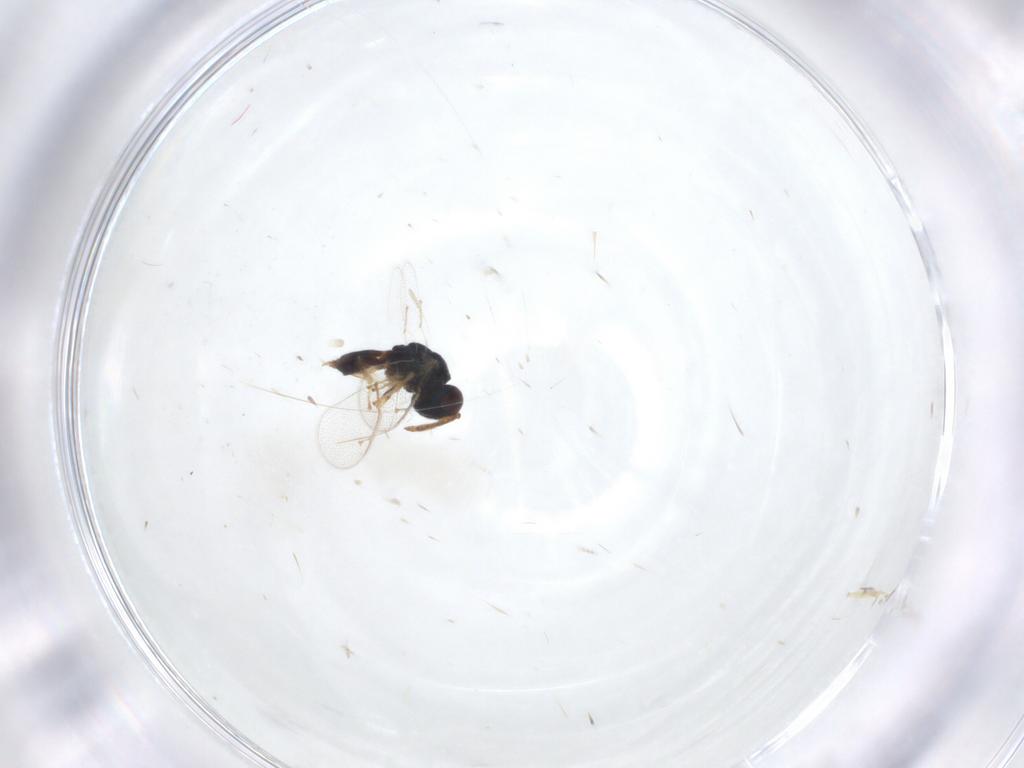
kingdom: Animalia
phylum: Arthropoda
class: Insecta
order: Hymenoptera
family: Pteromalidae
